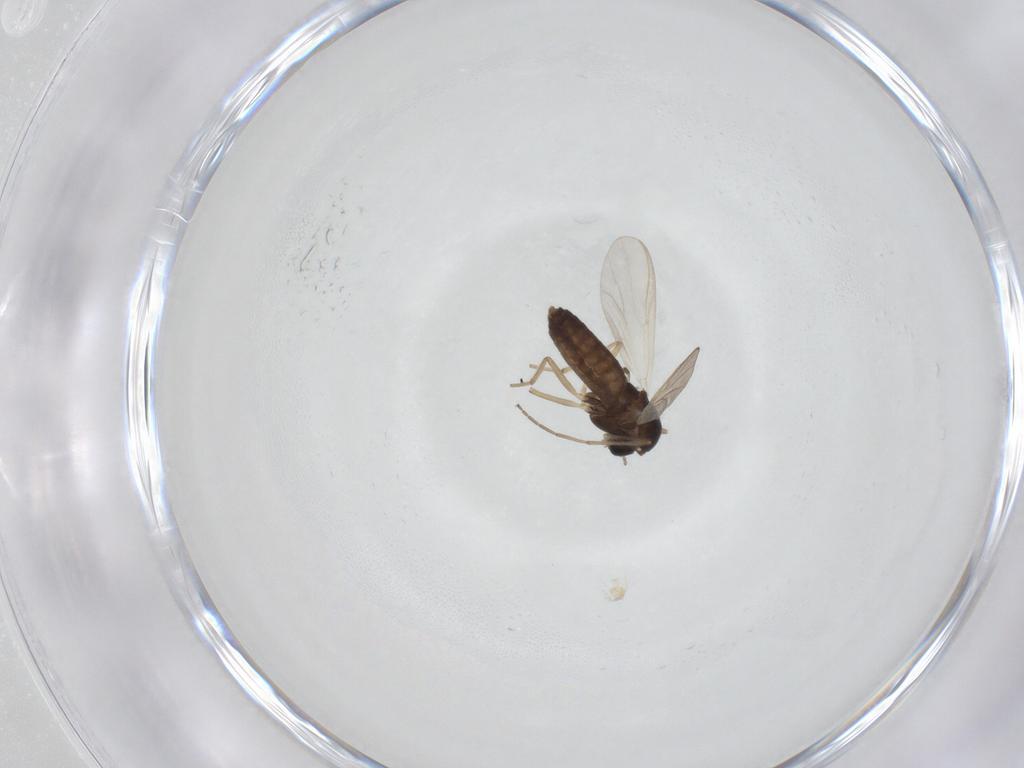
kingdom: Animalia
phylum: Arthropoda
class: Insecta
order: Diptera
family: Chironomidae
